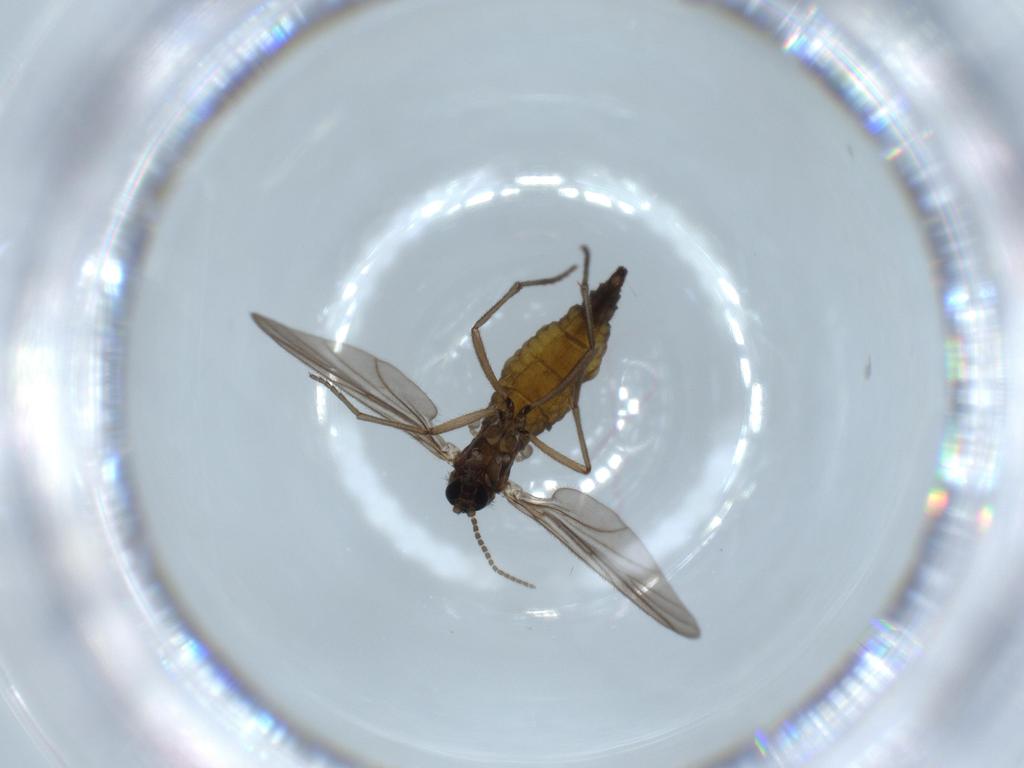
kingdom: Animalia
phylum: Arthropoda
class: Insecta
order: Diptera
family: Sciaridae
